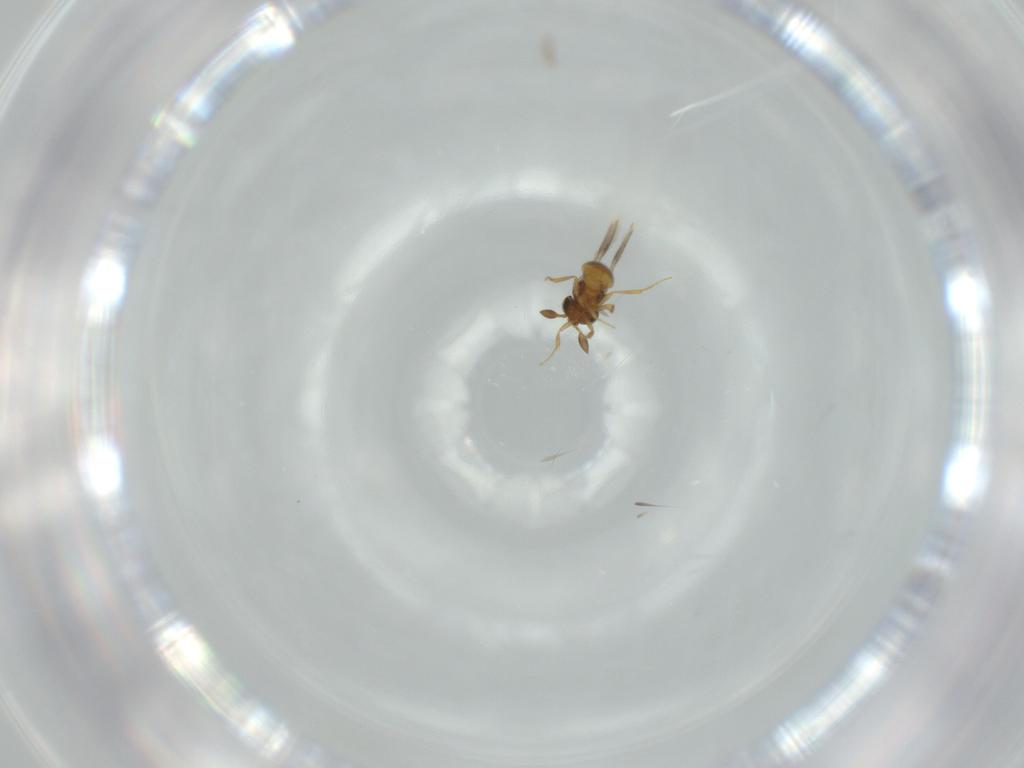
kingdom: Animalia
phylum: Arthropoda
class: Insecta
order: Hymenoptera
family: Scelionidae
